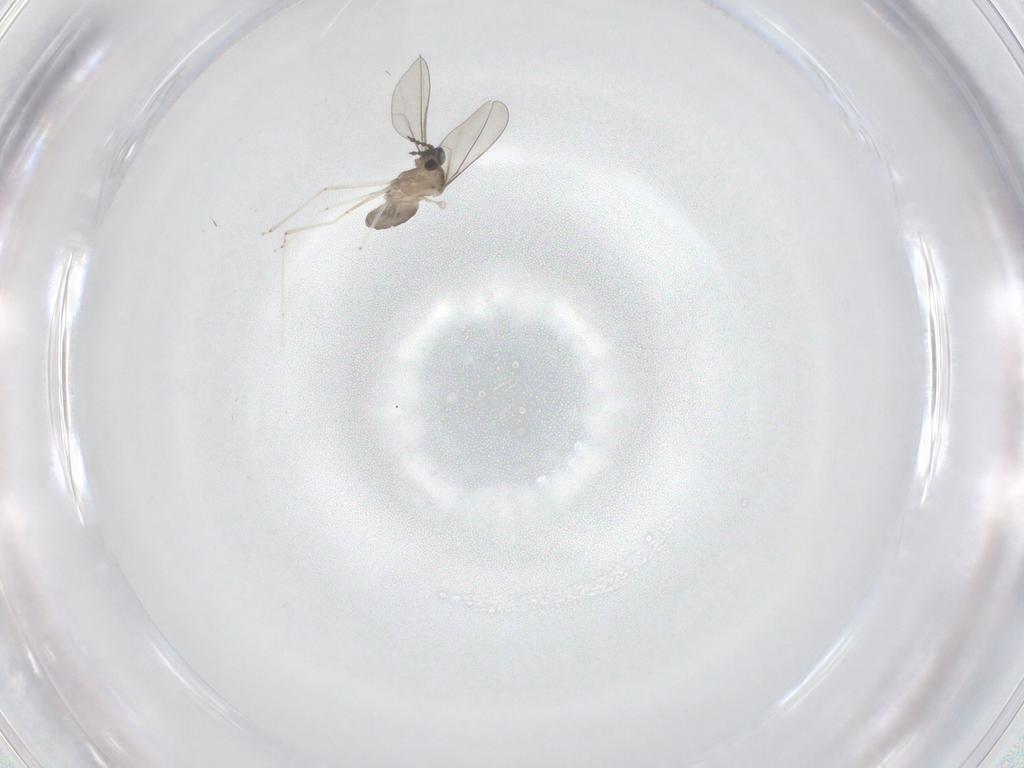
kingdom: Animalia
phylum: Arthropoda
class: Insecta
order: Diptera
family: Cecidomyiidae
